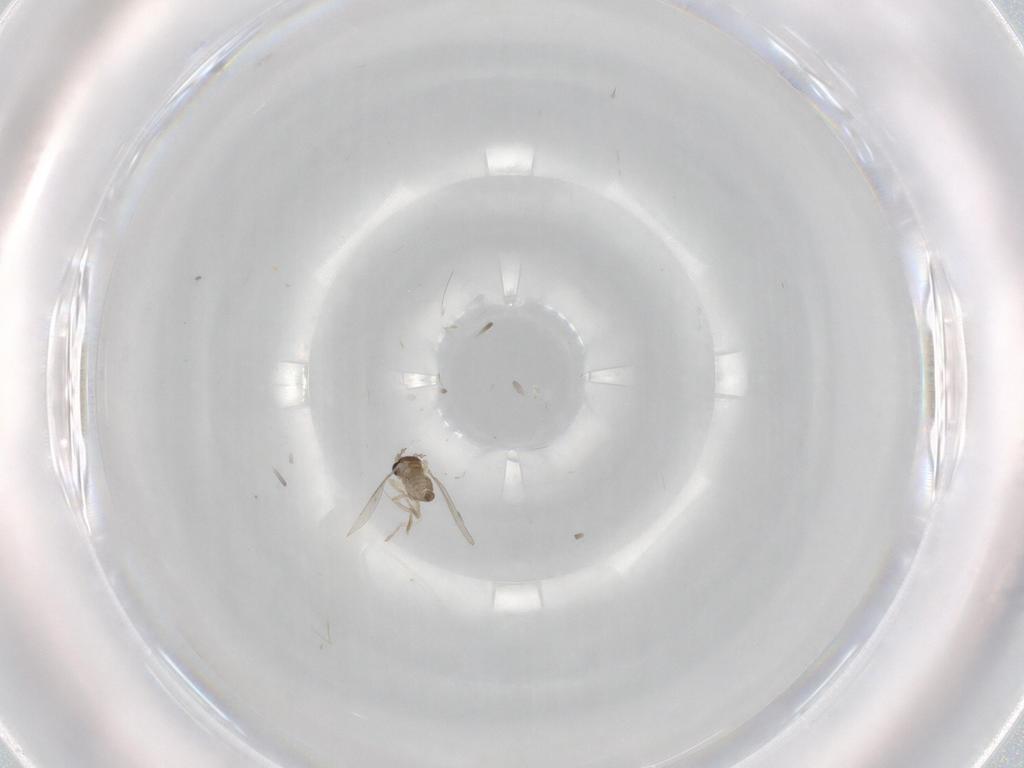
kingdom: Animalia
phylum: Arthropoda
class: Insecta
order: Diptera
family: Cecidomyiidae
